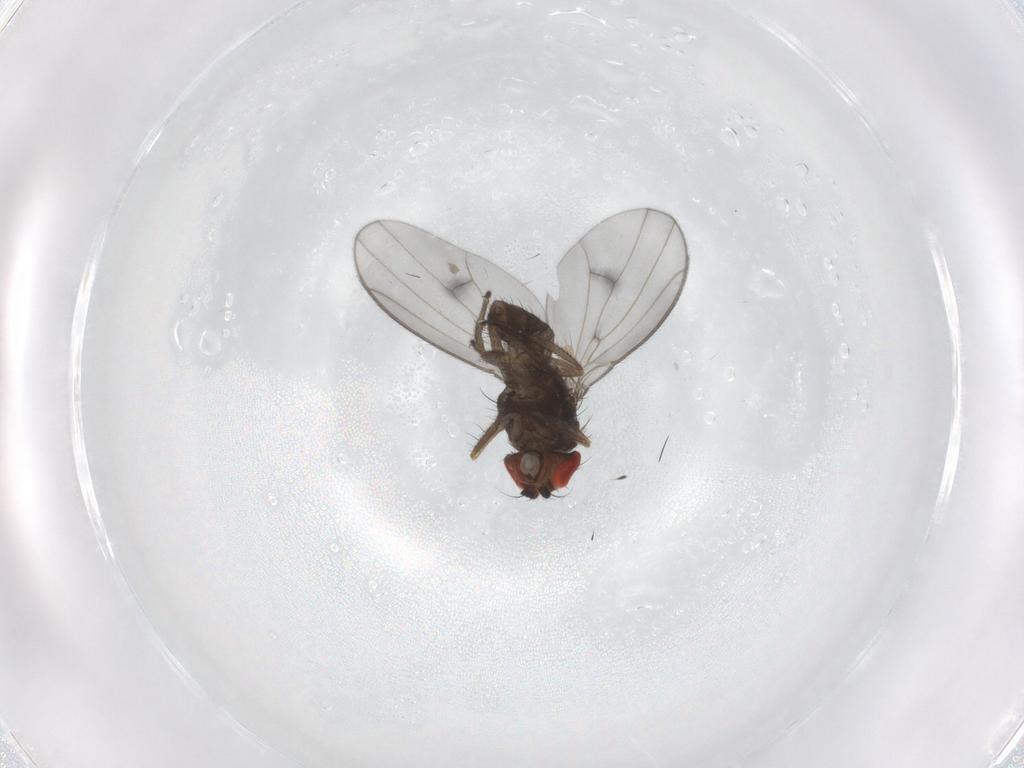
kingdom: Animalia
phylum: Arthropoda
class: Insecta
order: Diptera
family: Drosophilidae
